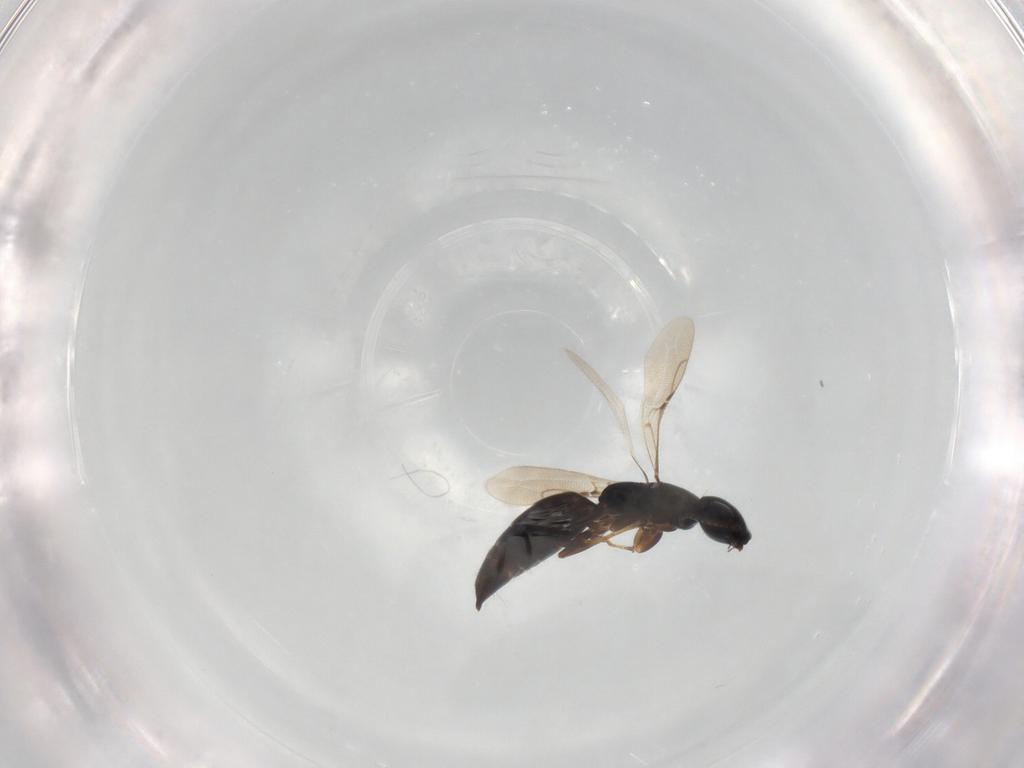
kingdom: Animalia
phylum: Arthropoda
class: Insecta
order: Hymenoptera
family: Bethylidae
